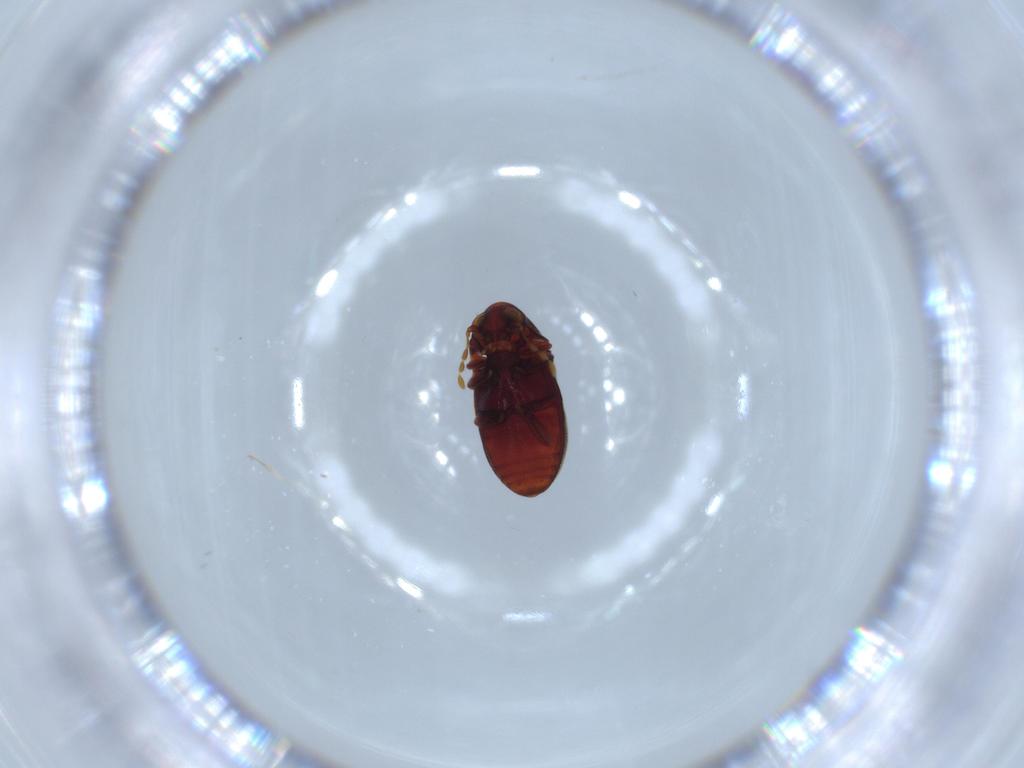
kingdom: Animalia
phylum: Arthropoda
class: Insecta
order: Coleoptera
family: Chrysomelidae
